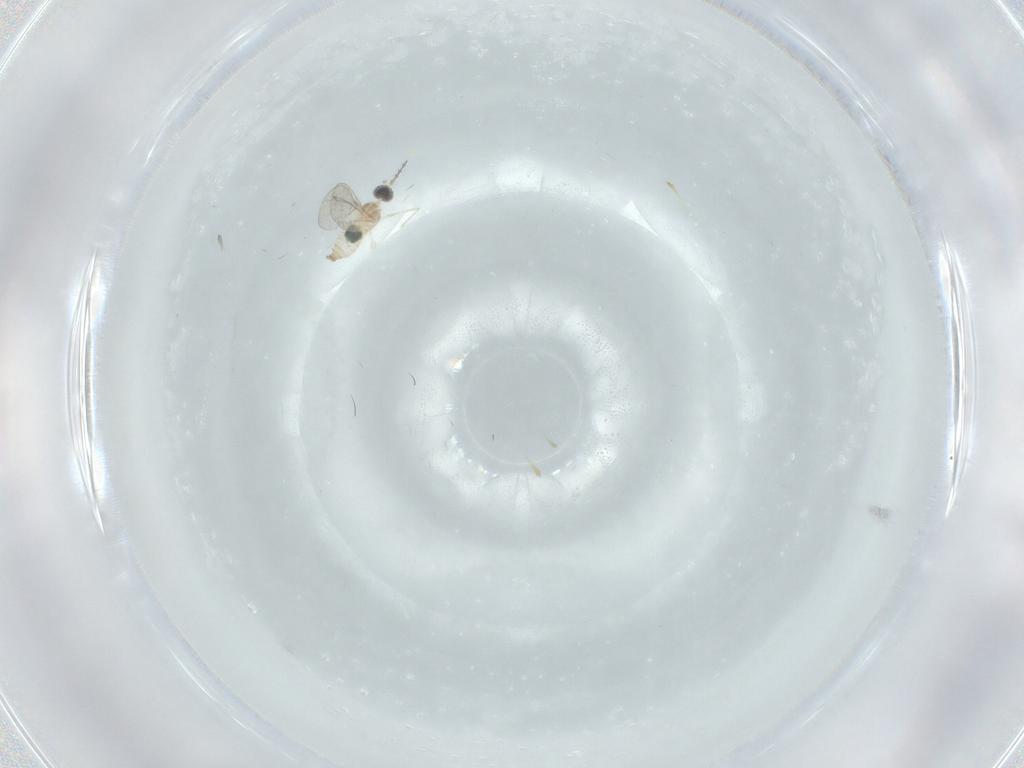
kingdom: Animalia
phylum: Arthropoda
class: Insecta
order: Diptera
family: Cecidomyiidae
